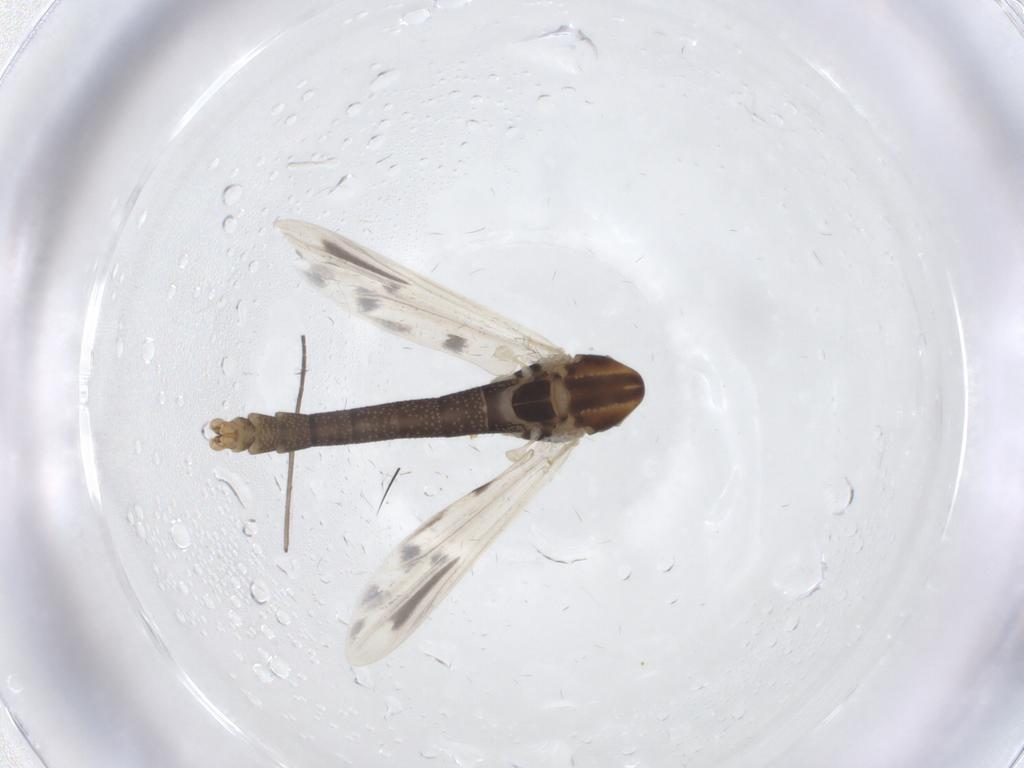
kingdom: Animalia
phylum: Arthropoda
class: Insecta
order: Diptera
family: Chironomidae
